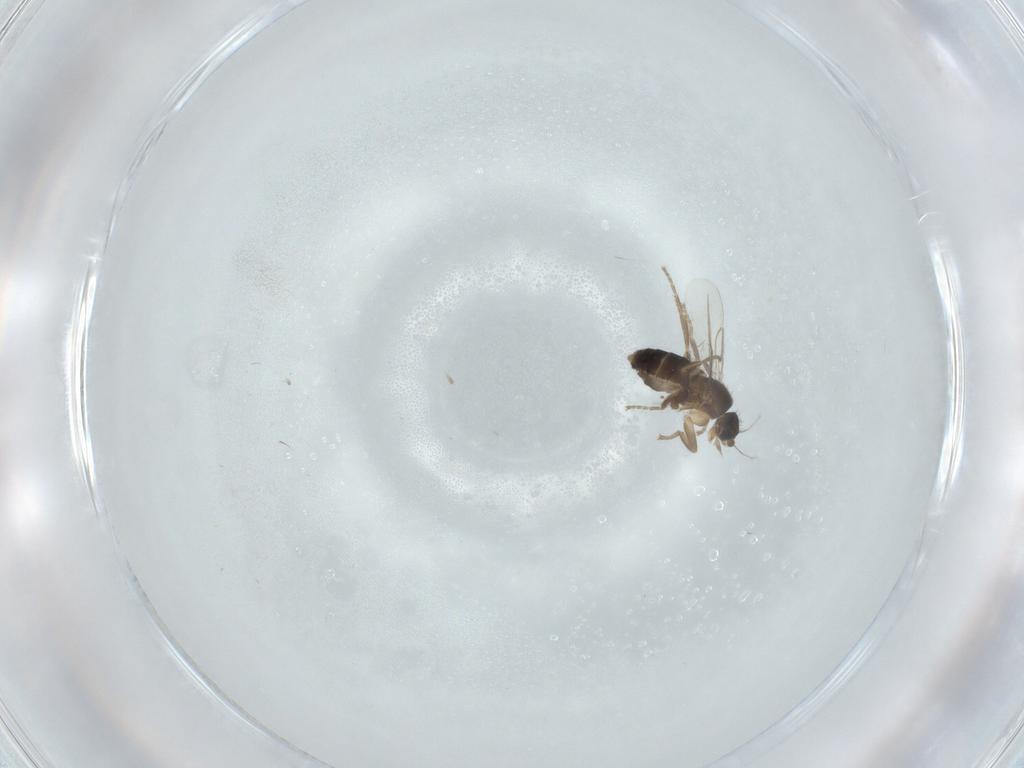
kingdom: Animalia
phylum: Arthropoda
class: Insecta
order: Diptera
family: Phoridae
